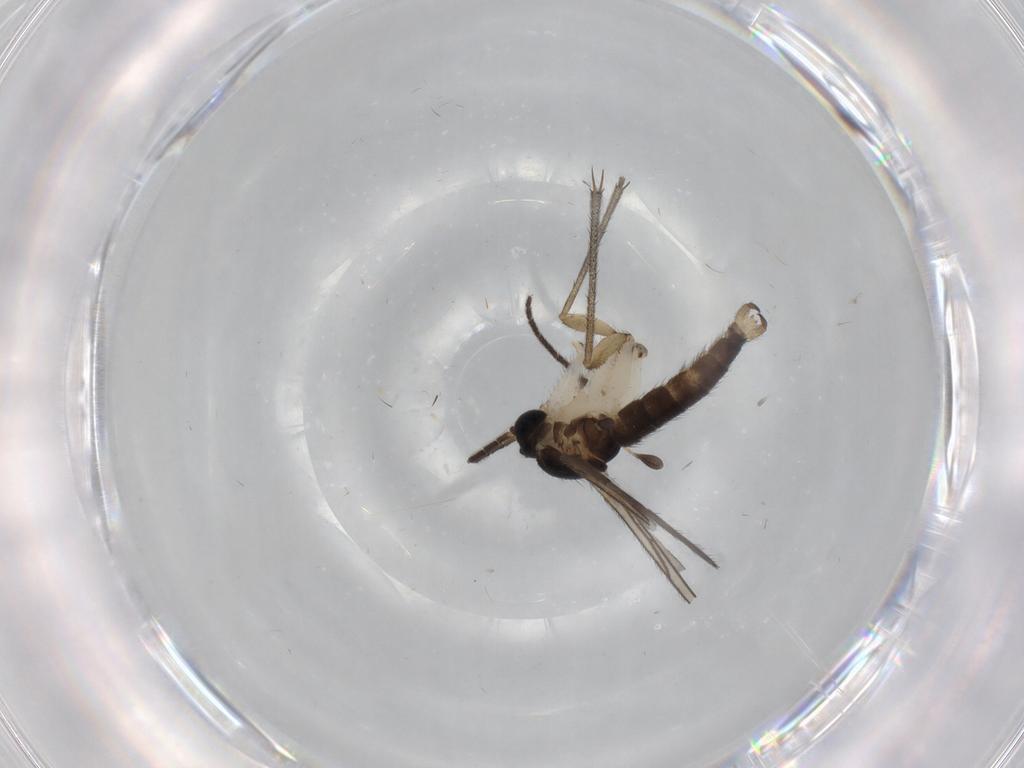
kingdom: Animalia
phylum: Arthropoda
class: Insecta
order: Diptera
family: Sciaridae
